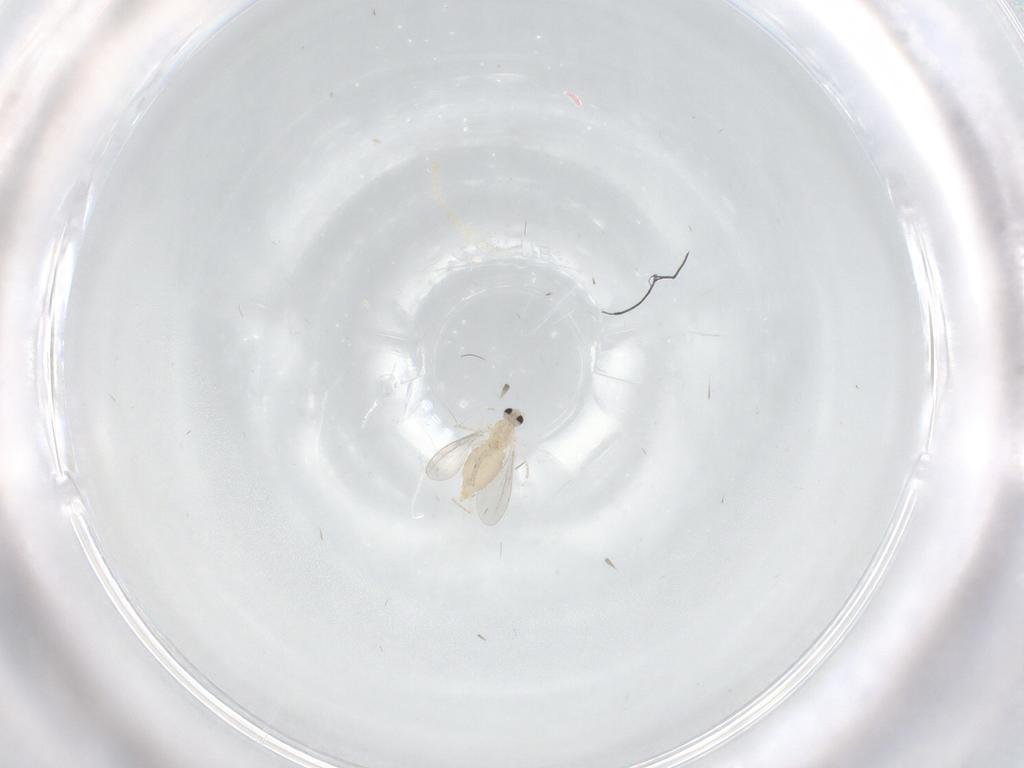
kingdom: Animalia
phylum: Arthropoda
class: Insecta
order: Diptera
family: Cecidomyiidae
